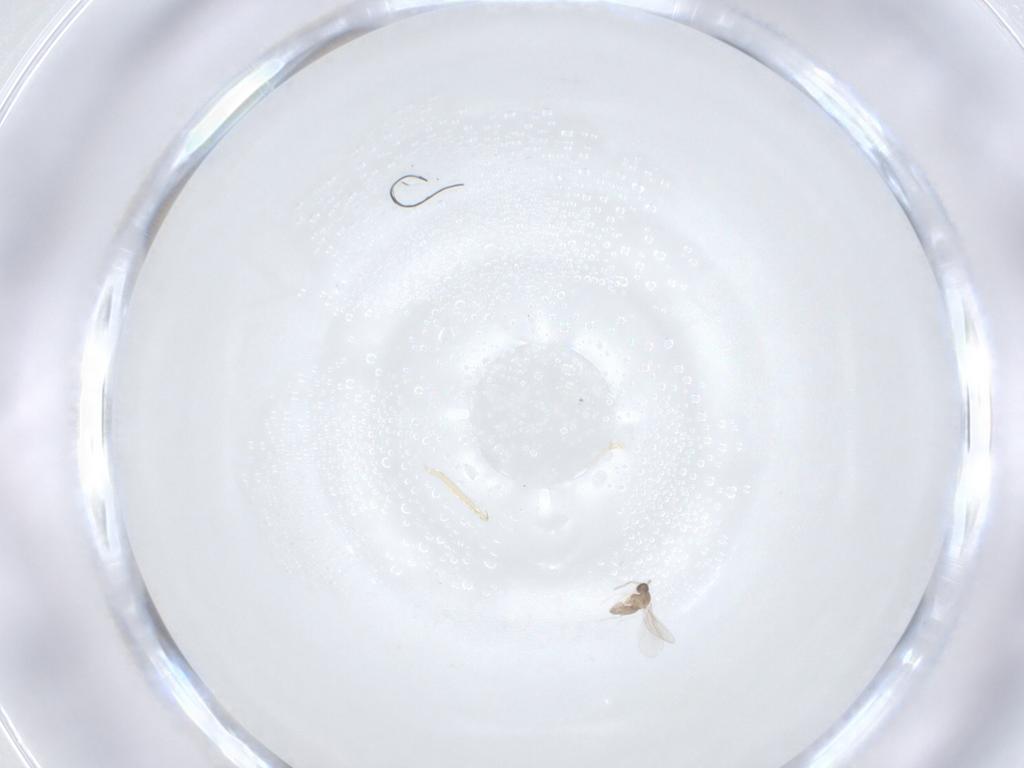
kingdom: Animalia
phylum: Arthropoda
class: Insecta
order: Diptera
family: Cecidomyiidae
